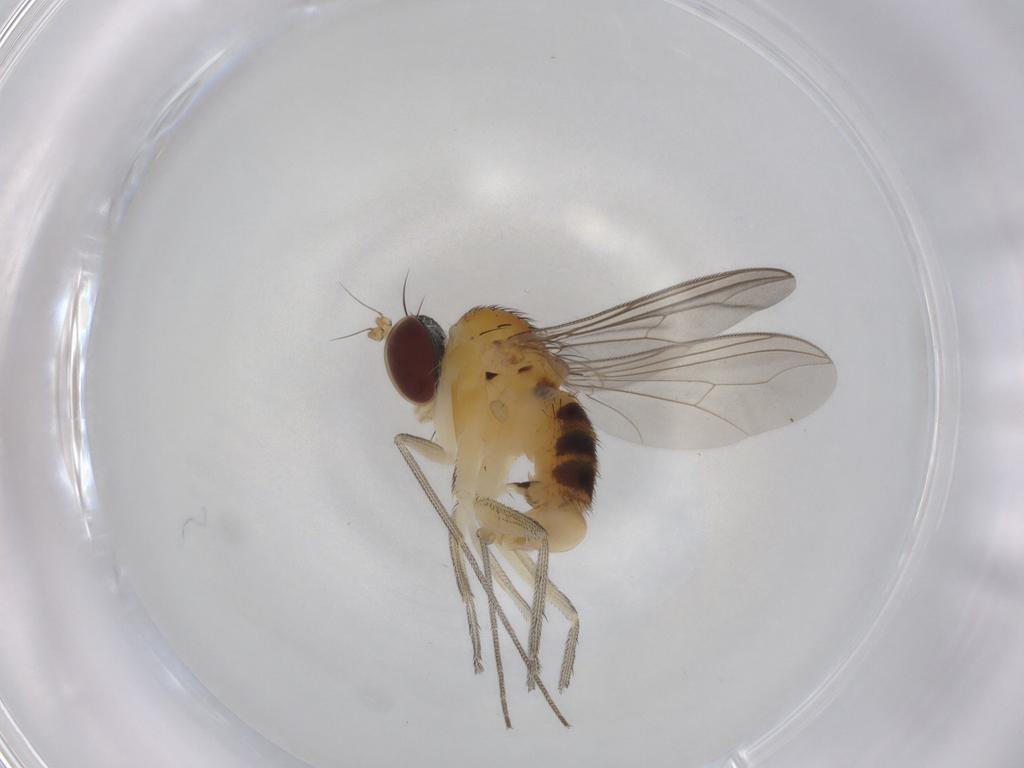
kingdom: Animalia
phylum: Arthropoda
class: Insecta
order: Diptera
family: Dolichopodidae
